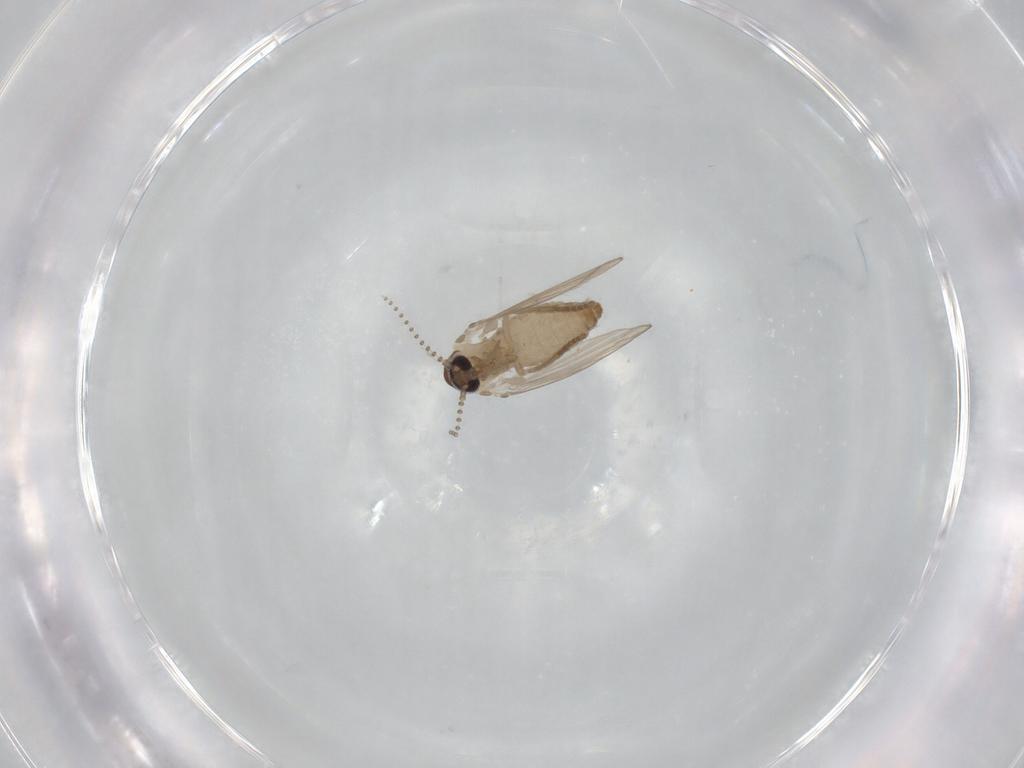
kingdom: Animalia
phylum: Arthropoda
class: Insecta
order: Diptera
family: Psychodidae
